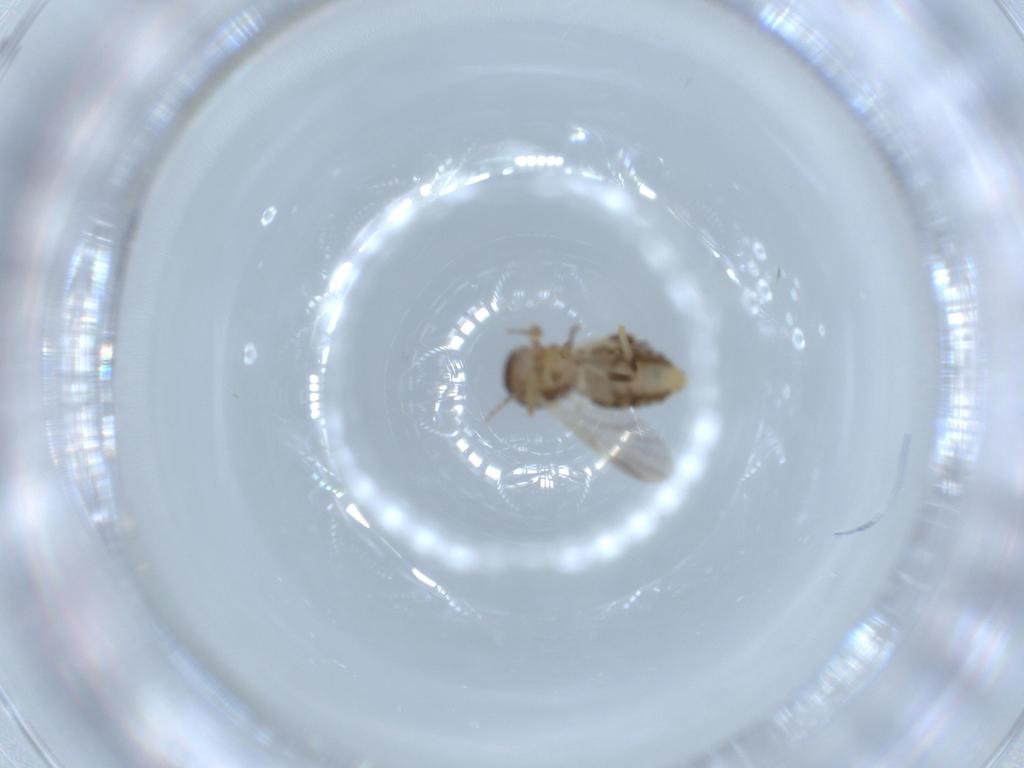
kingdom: Animalia
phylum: Arthropoda
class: Insecta
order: Diptera
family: Ceratopogonidae
